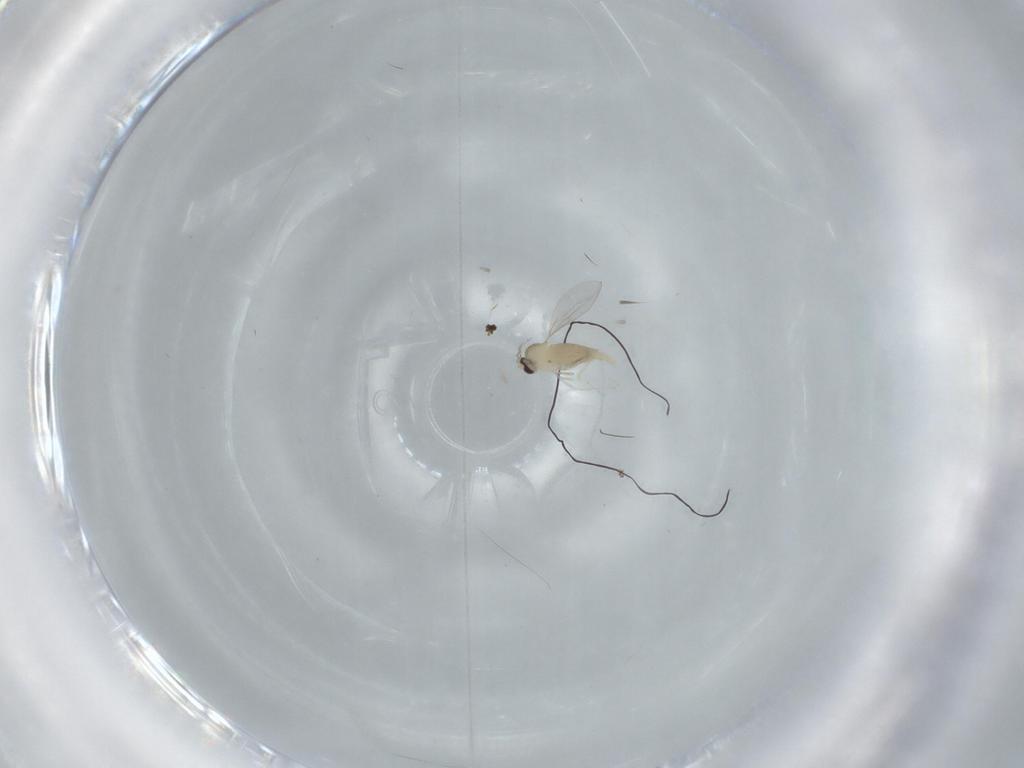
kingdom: Animalia
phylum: Arthropoda
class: Insecta
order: Diptera
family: Cecidomyiidae
